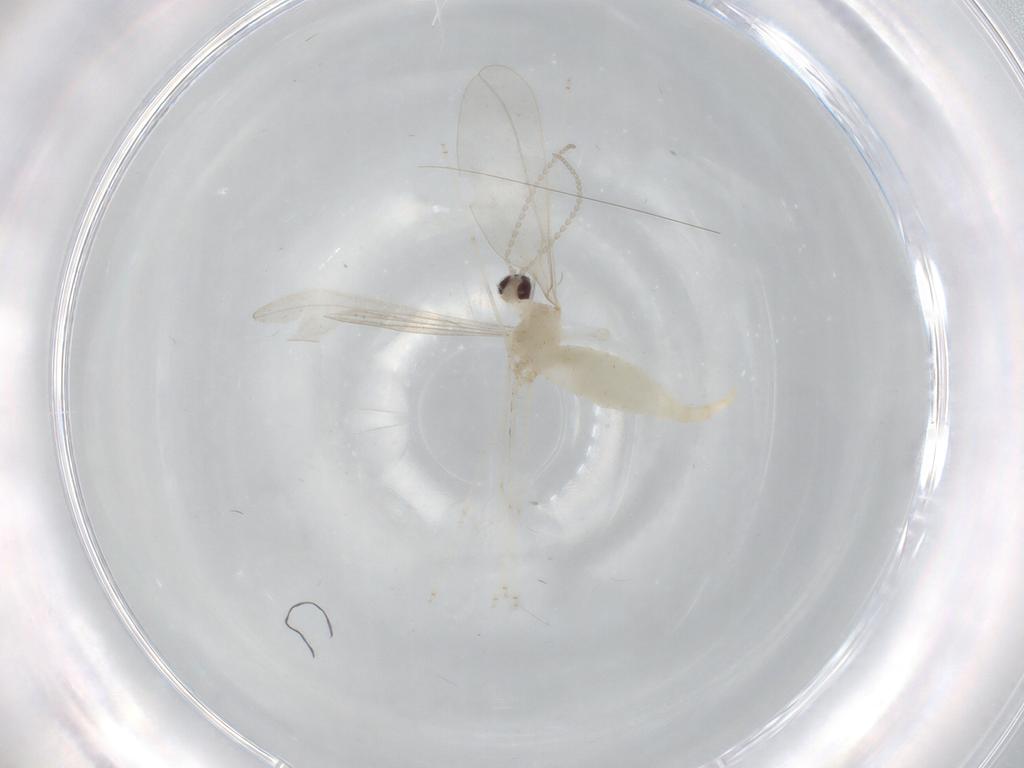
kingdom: Animalia
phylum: Arthropoda
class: Insecta
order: Diptera
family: Cecidomyiidae
